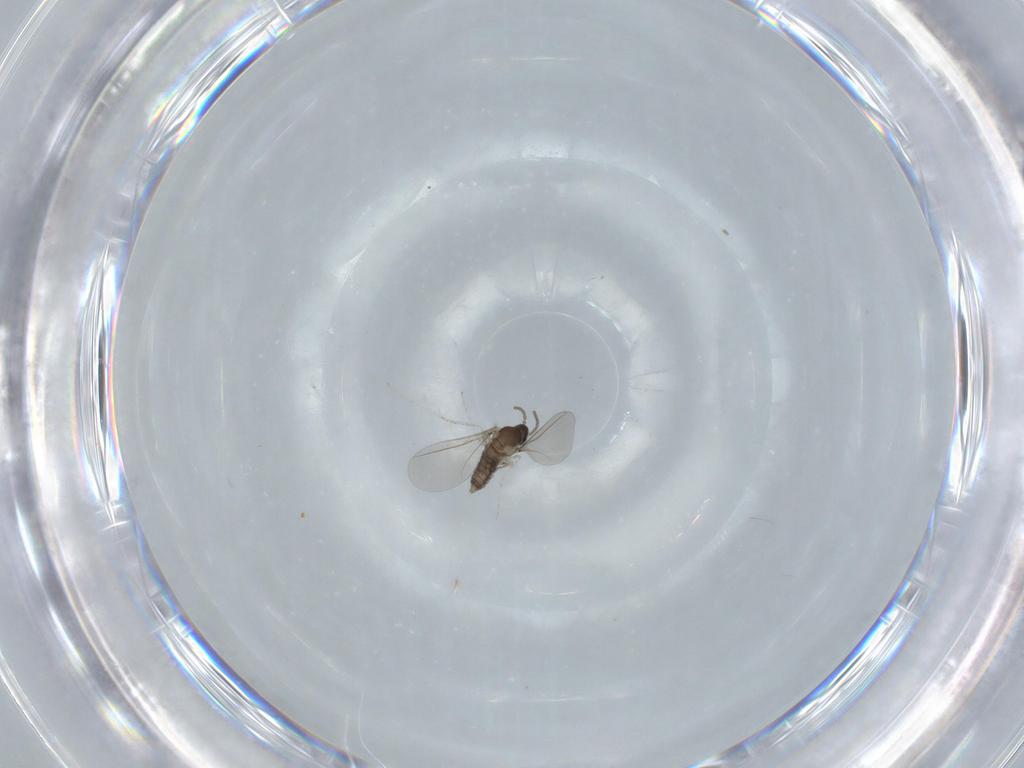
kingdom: Animalia
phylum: Arthropoda
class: Insecta
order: Diptera
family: Cecidomyiidae
